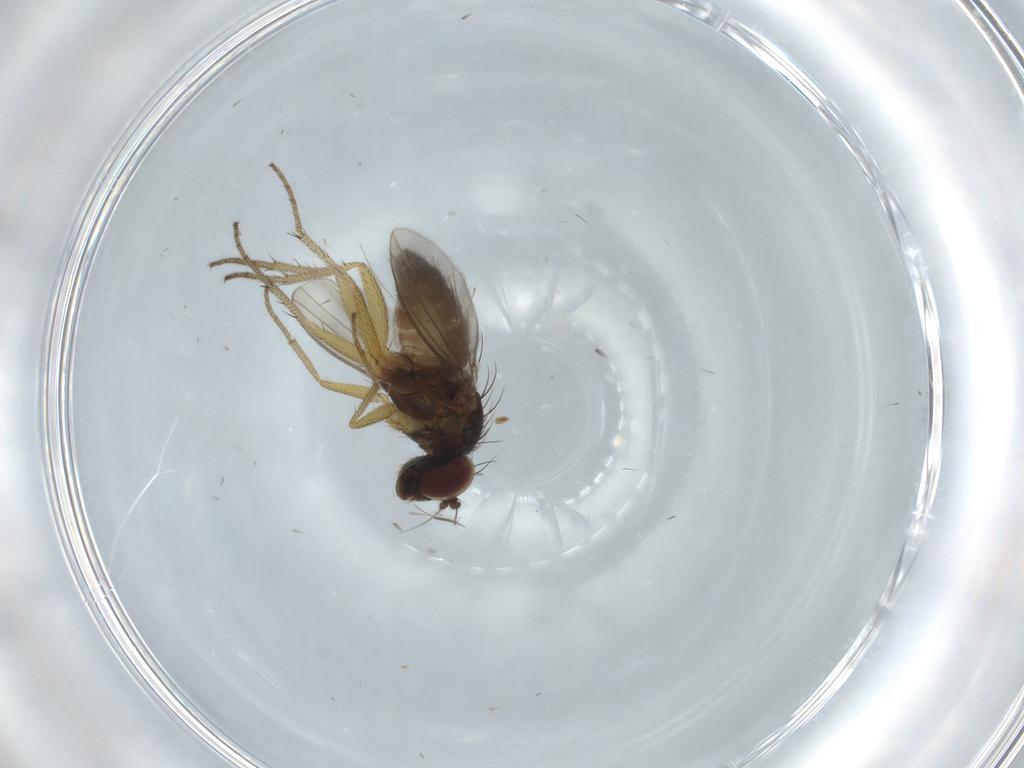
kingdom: Animalia
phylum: Arthropoda
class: Insecta
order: Diptera
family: Dolichopodidae
